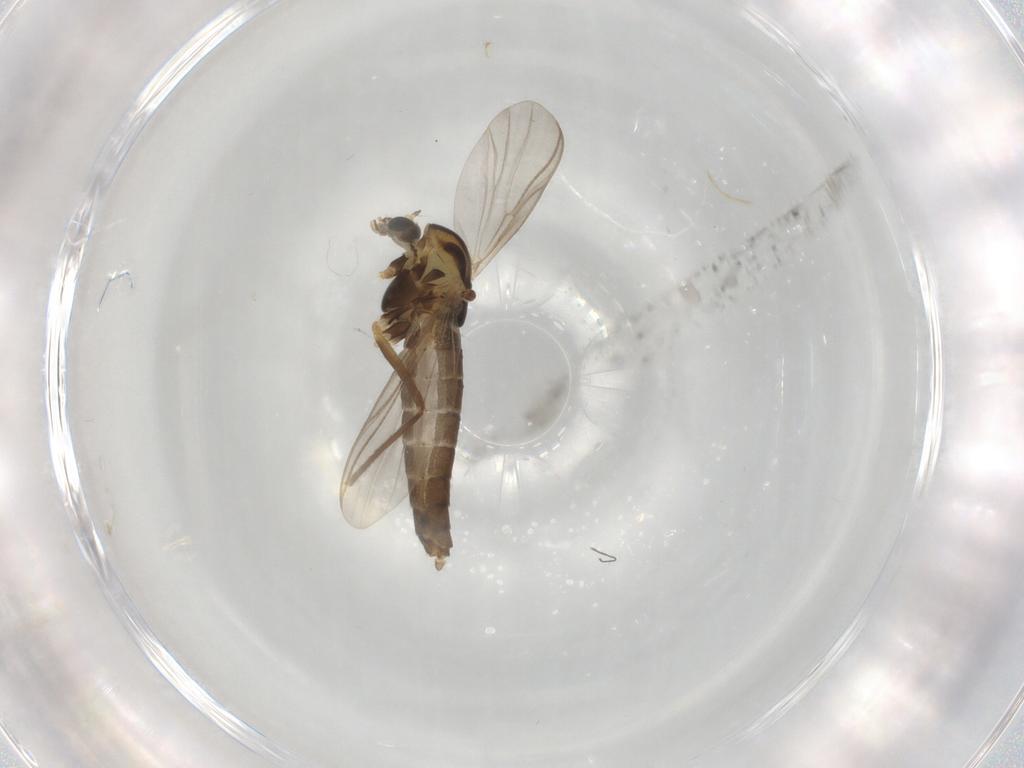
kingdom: Animalia
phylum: Arthropoda
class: Insecta
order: Diptera
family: Chironomidae
